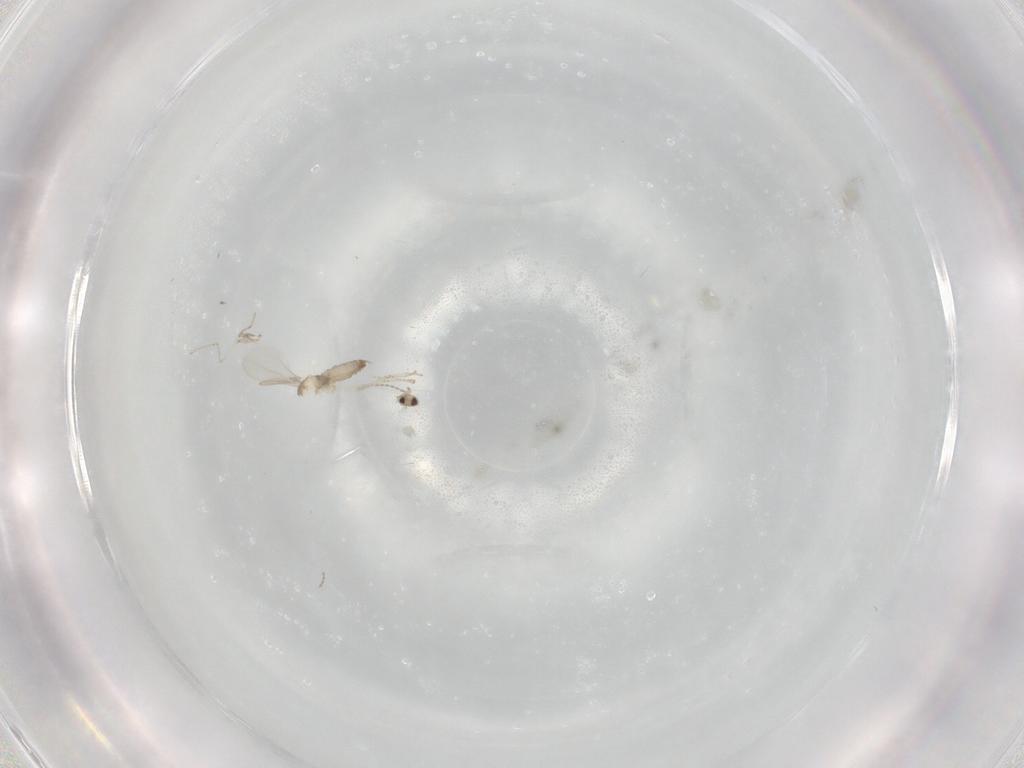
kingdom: Animalia
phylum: Arthropoda
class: Insecta
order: Diptera
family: Cecidomyiidae
